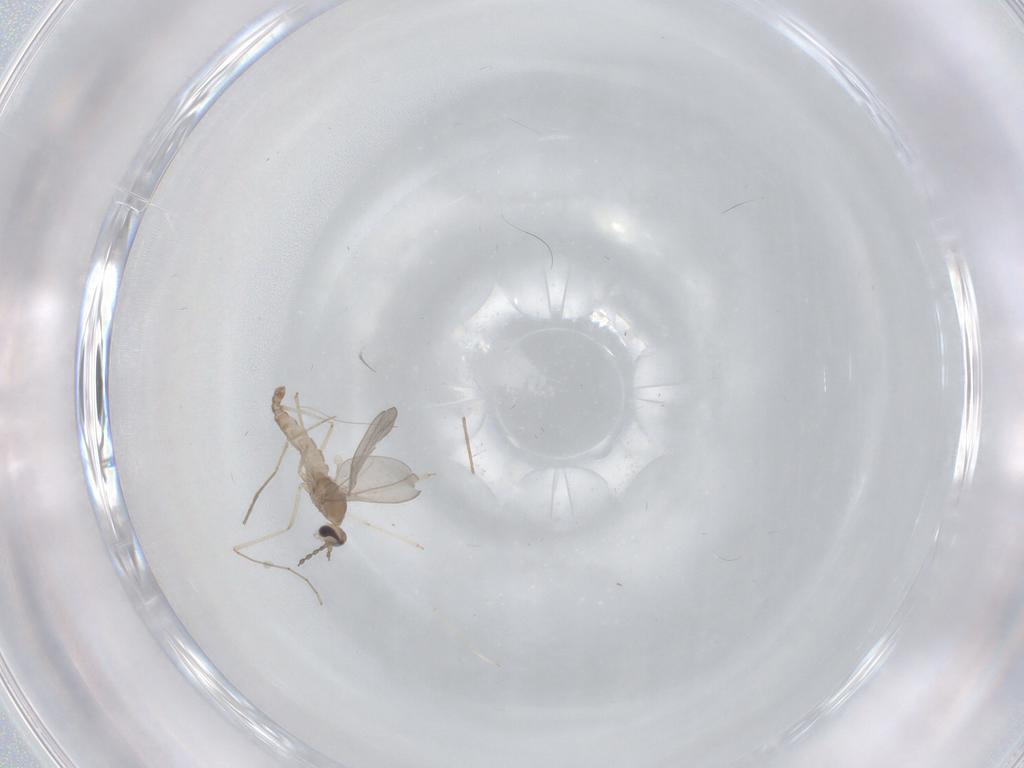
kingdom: Animalia
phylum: Arthropoda
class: Insecta
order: Diptera
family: Cecidomyiidae
